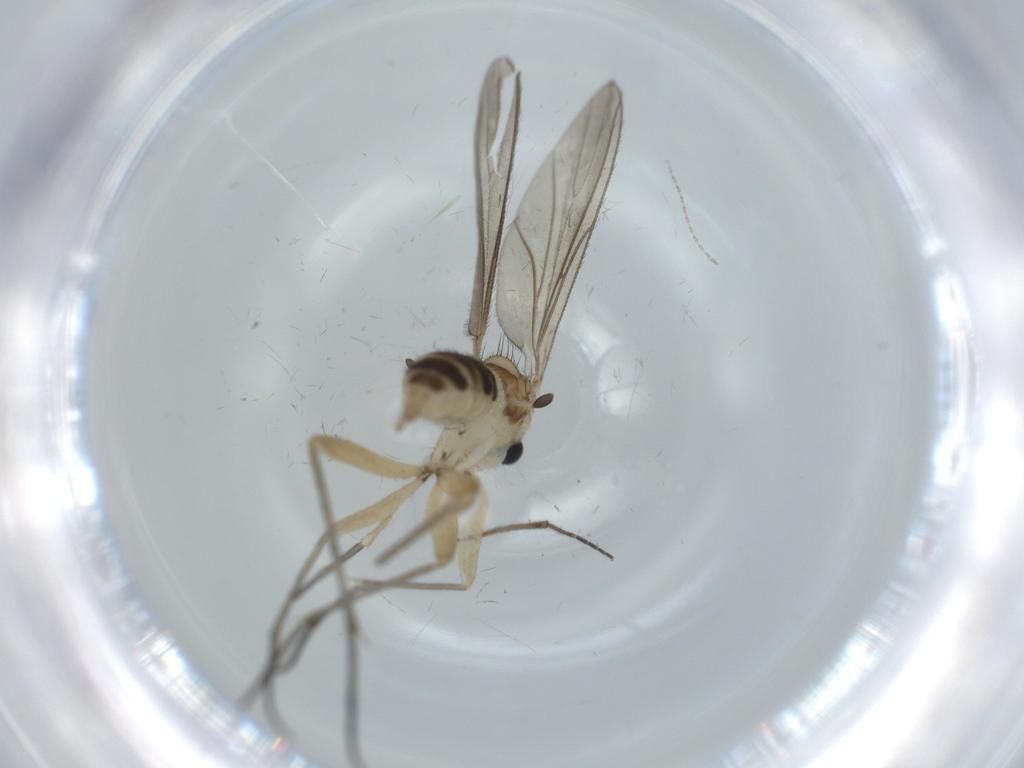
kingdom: Animalia
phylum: Arthropoda
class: Insecta
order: Diptera
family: Sciaridae
